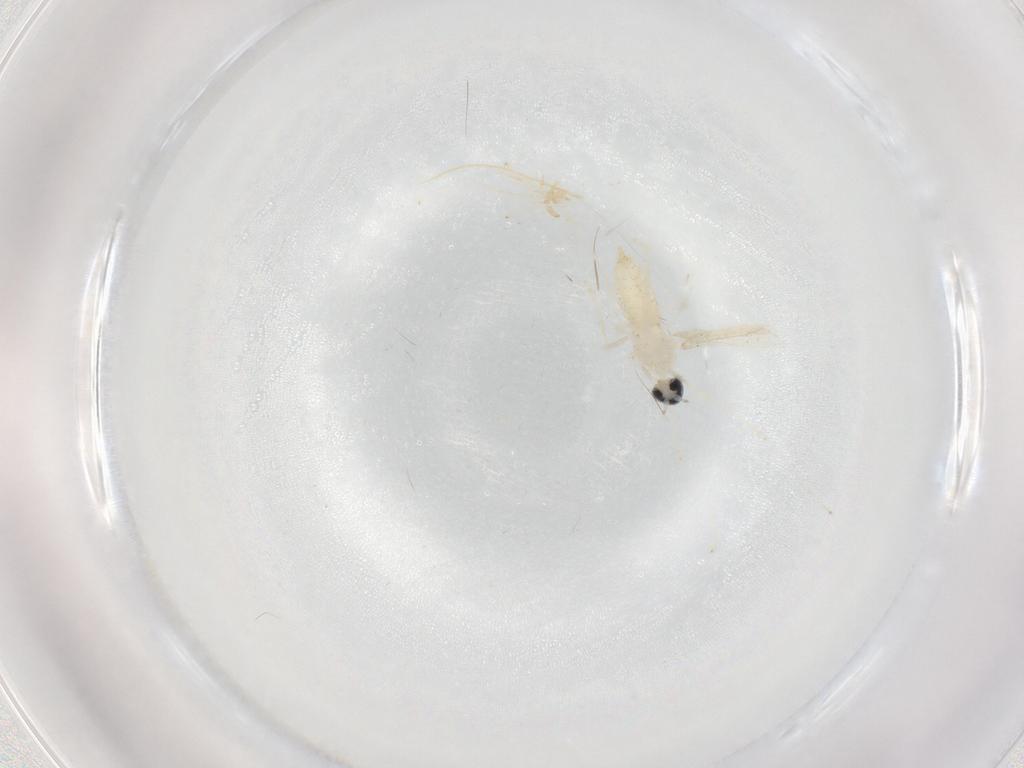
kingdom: Animalia
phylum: Arthropoda
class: Insecta
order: Diptera
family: Cecidomyiidae
